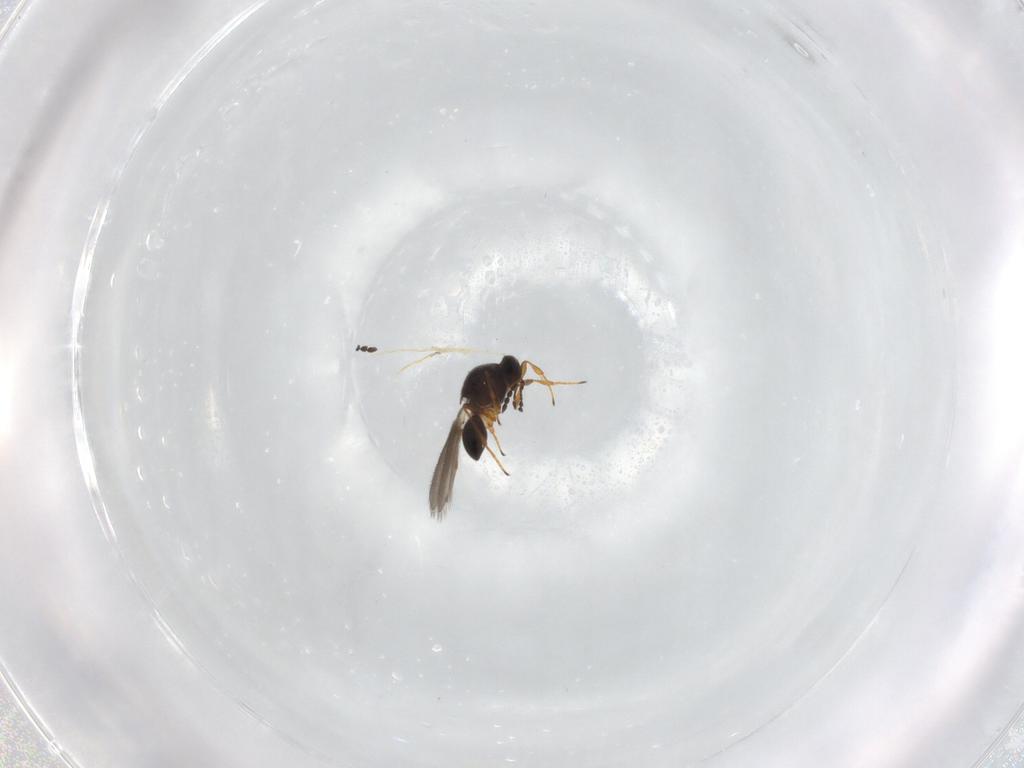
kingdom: Animalia
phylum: Arthropoda
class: Insecta
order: Hymenoptera
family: Platygastridae
